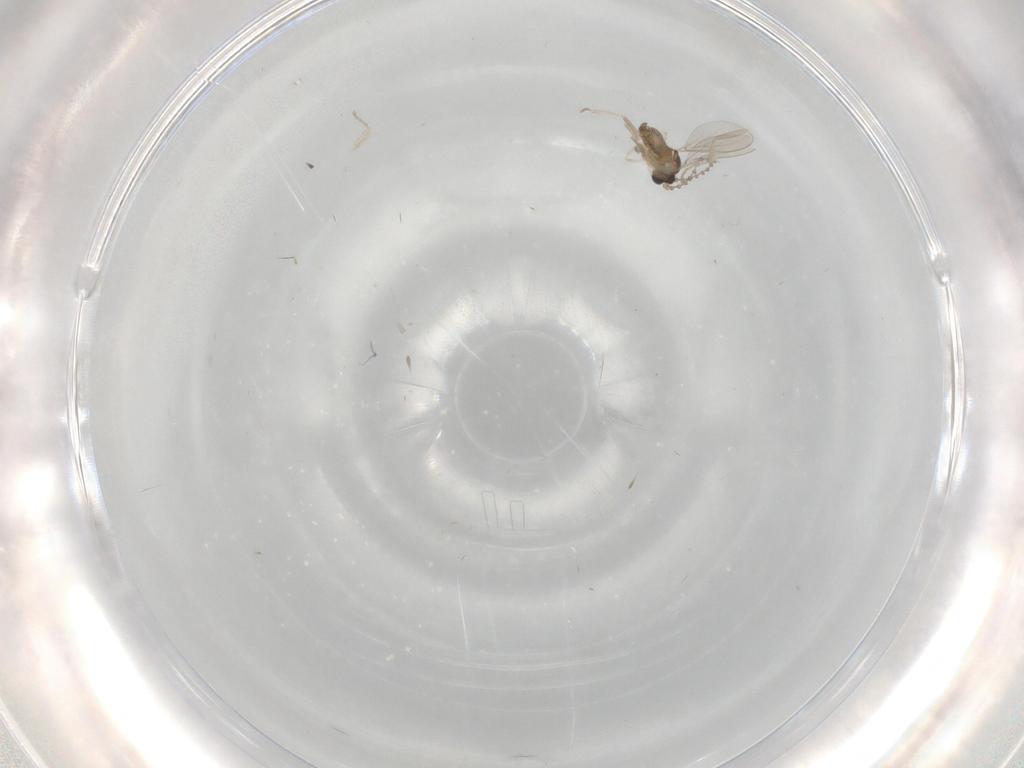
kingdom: Animalia
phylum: Arthropoda
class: Insecta
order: Diptera
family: Cecidomyiidae
